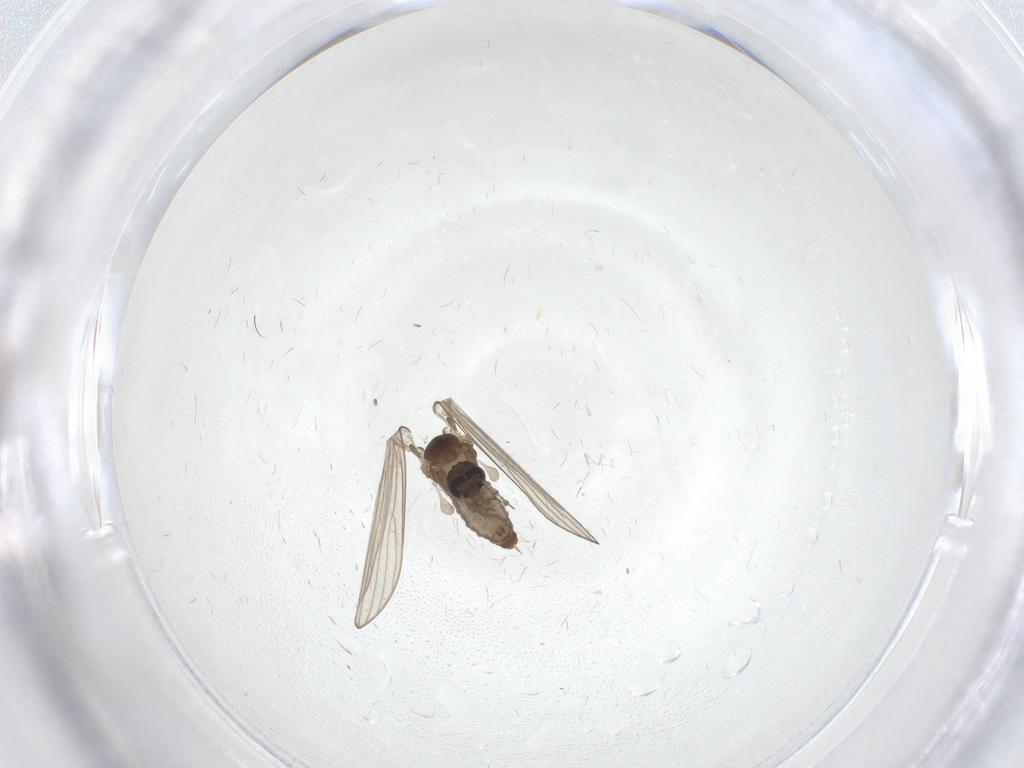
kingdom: Animalia
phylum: Arthropoda
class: Insecta
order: Diptera
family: Psychodidae
